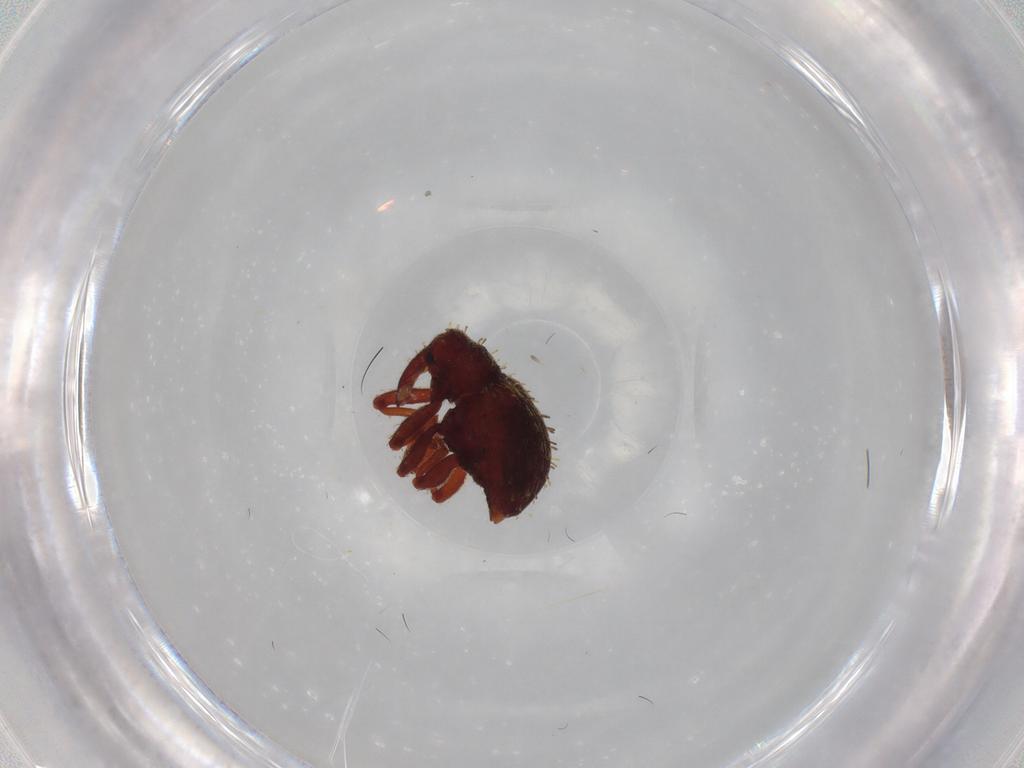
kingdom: Animalia
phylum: Arthropoda
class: Insecta
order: Coleoptera
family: Curculionidae
